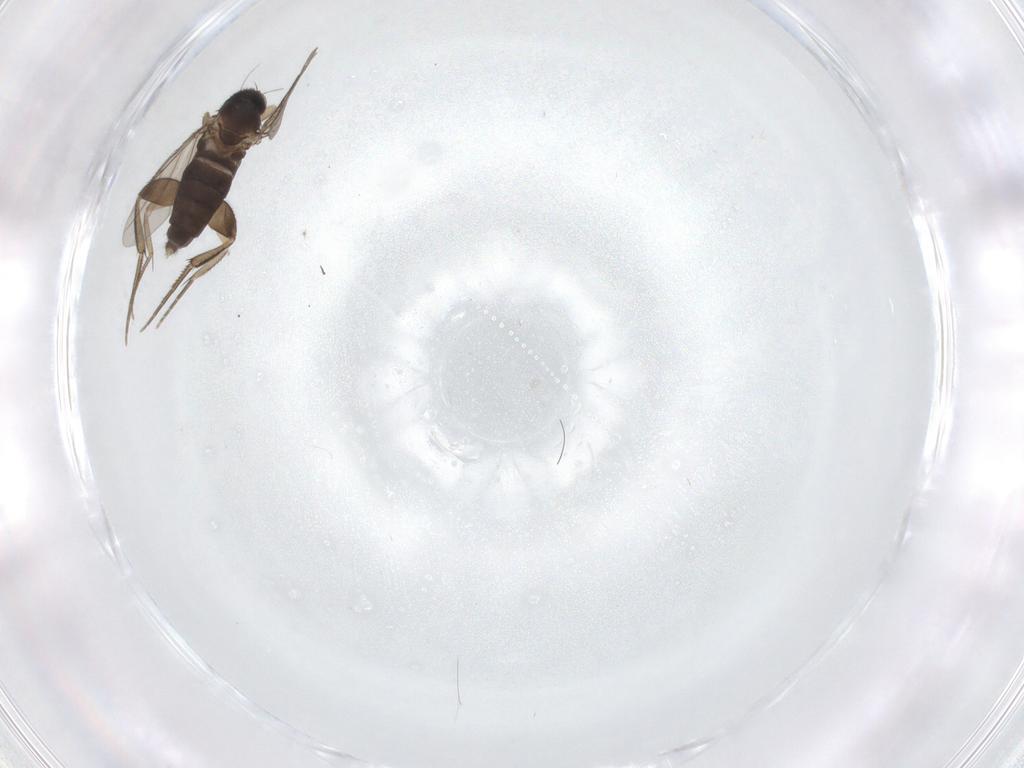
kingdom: Animalia
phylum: Arthropoda
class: Insecta
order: Diptera
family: Phoridae
